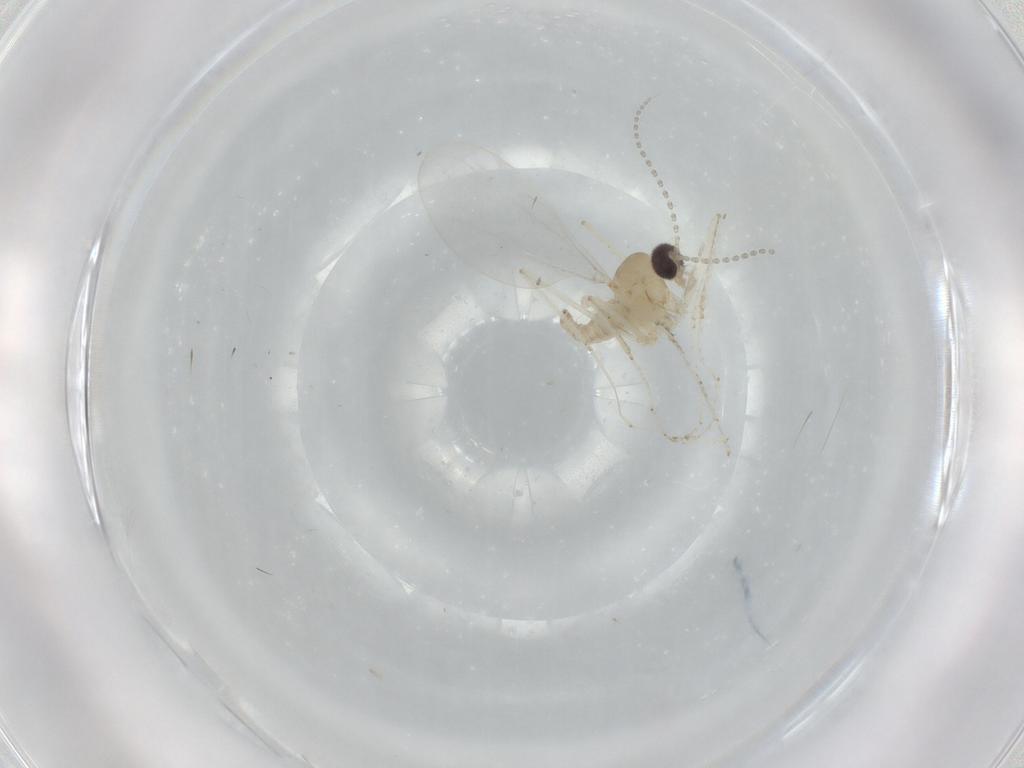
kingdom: Animalia
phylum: Arthropoda
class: Insecta
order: Diptera
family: Cecidomyiidae
